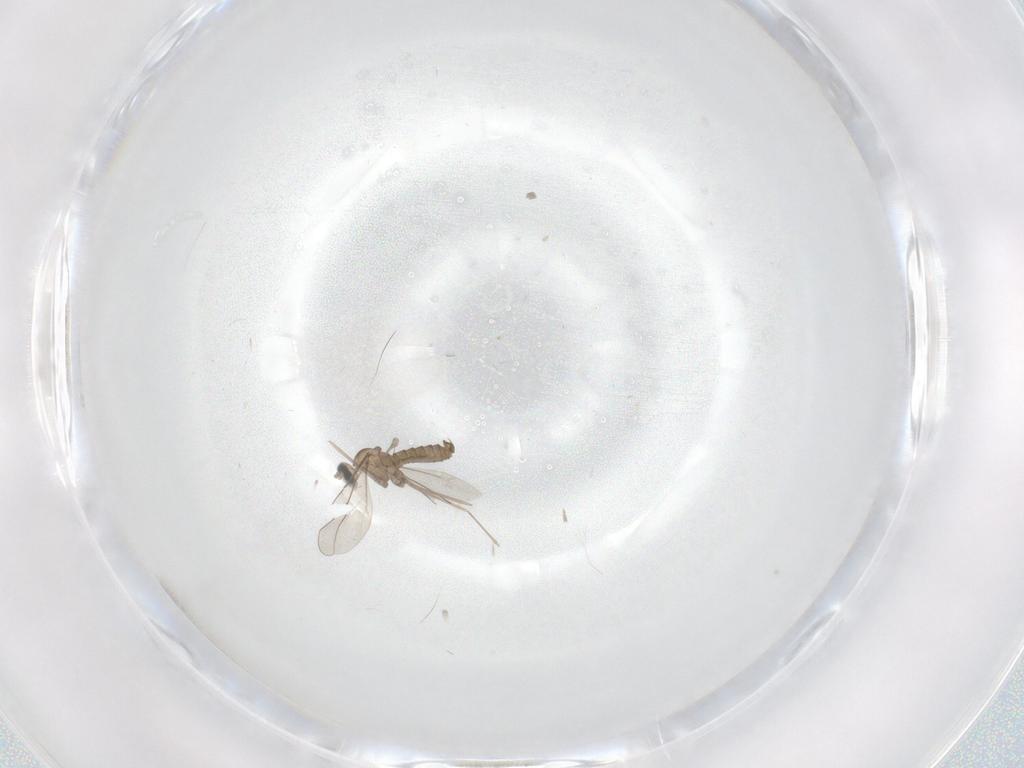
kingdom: Animalia
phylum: Arthropoda
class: Insecta
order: Diptera
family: Cecidomyiidae
